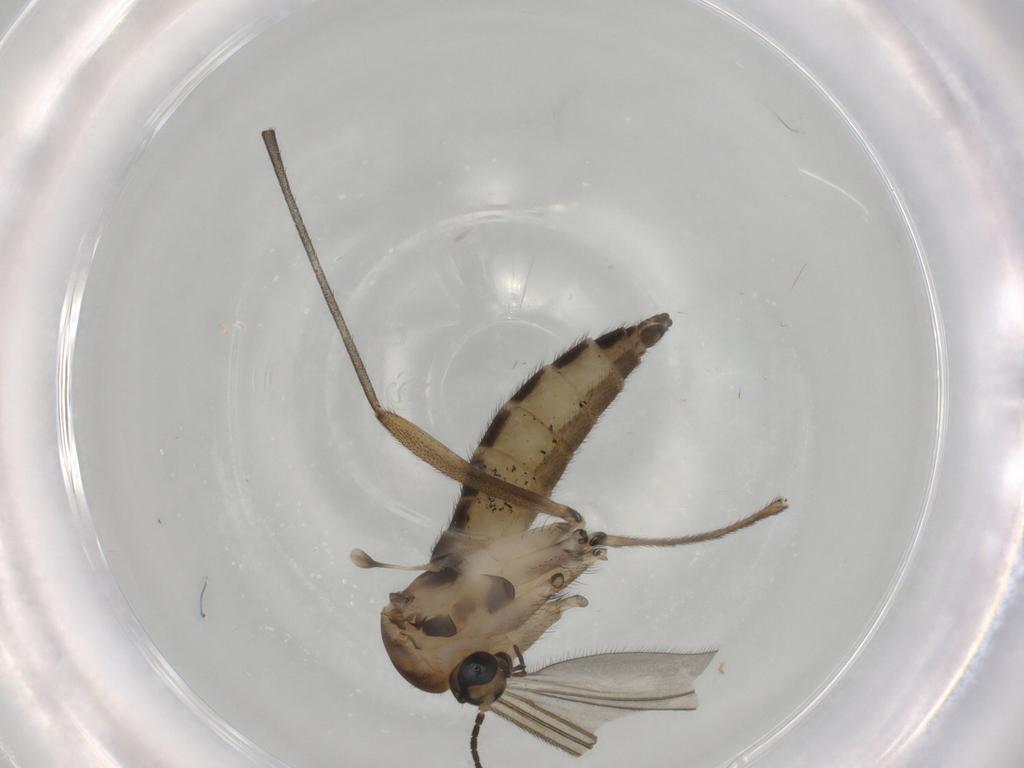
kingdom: Animalia
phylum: Arthropoda
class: Insecta
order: Diptera
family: Sciaridae
